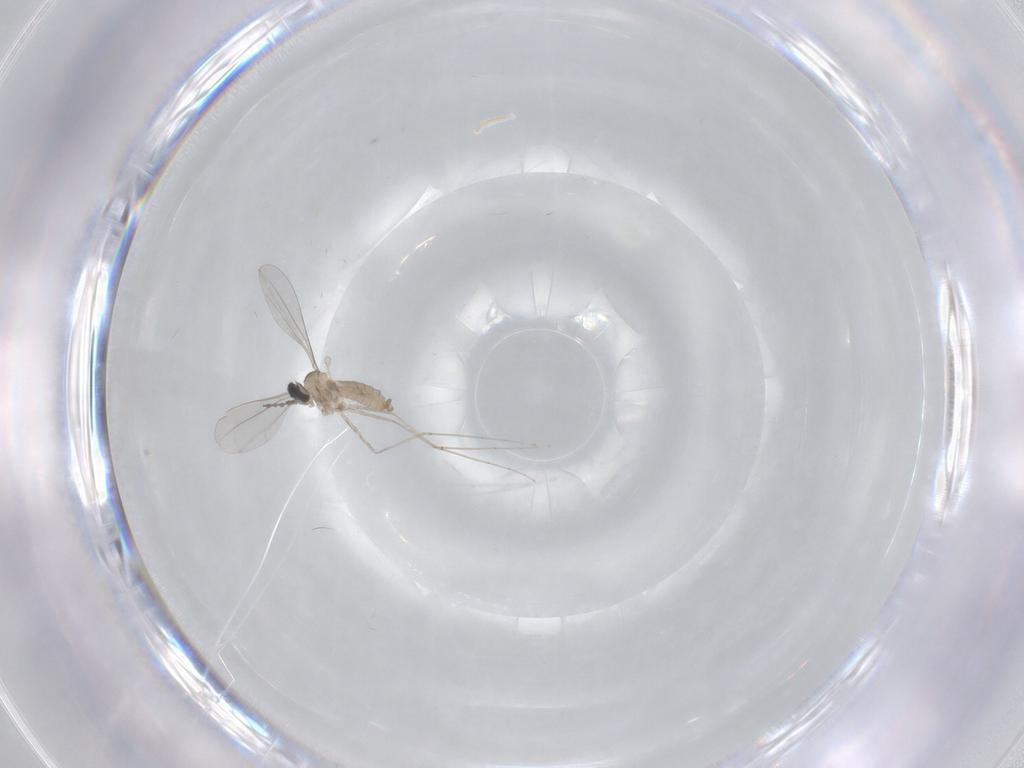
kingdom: Animalia
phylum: Arthropoda
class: Insecta
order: Diptera
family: Cecidomyiidae
